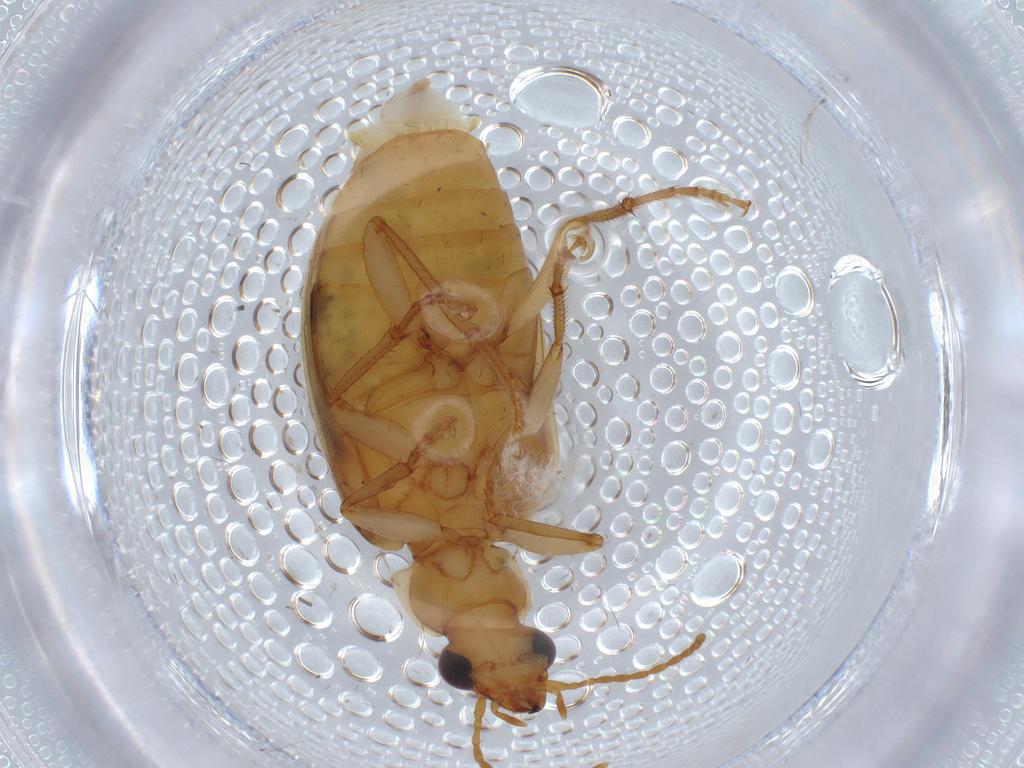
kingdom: Animalia
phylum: Arthropoda
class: Insecta
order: Coleoptera
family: Carabidae
